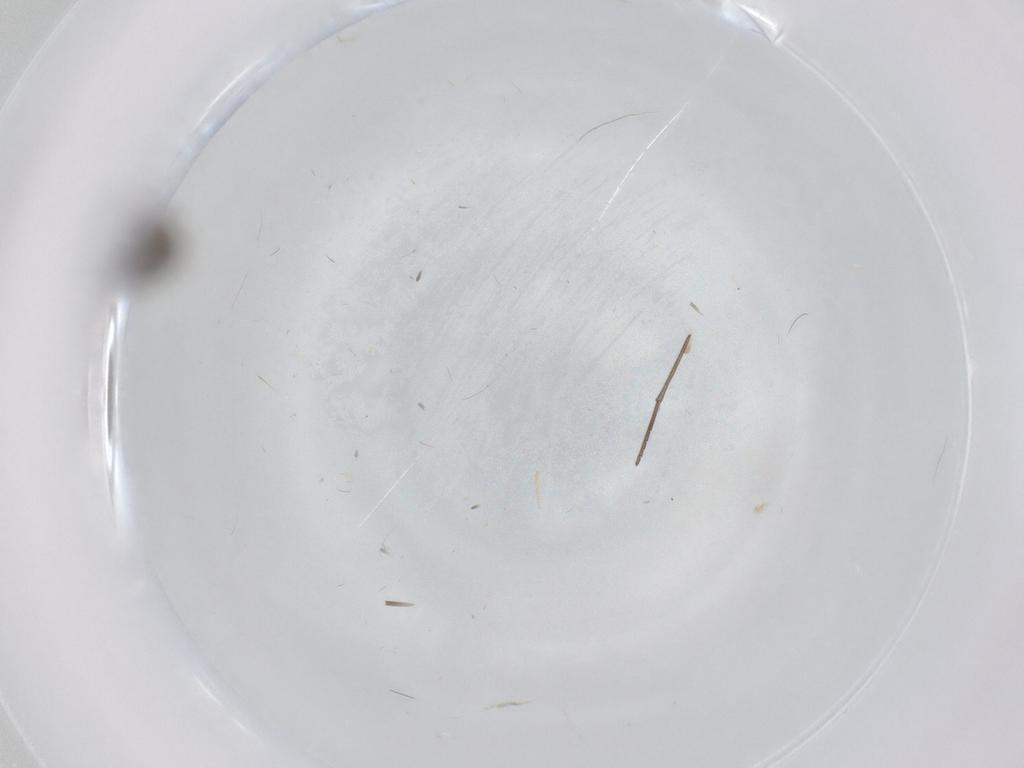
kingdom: Animalia
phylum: Arthropoda
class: Insecta
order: Diptera
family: Sciaridae
